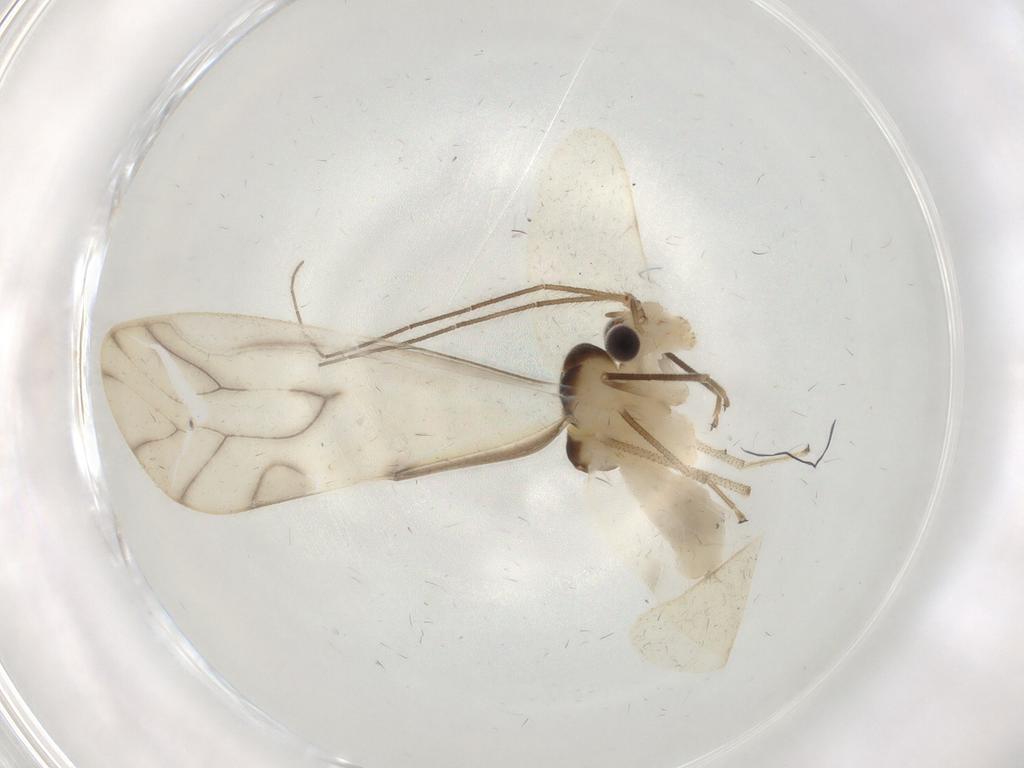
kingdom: Animalia
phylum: Arthropoda
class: Insecta
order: Psocodea
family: Caeciliusidae
